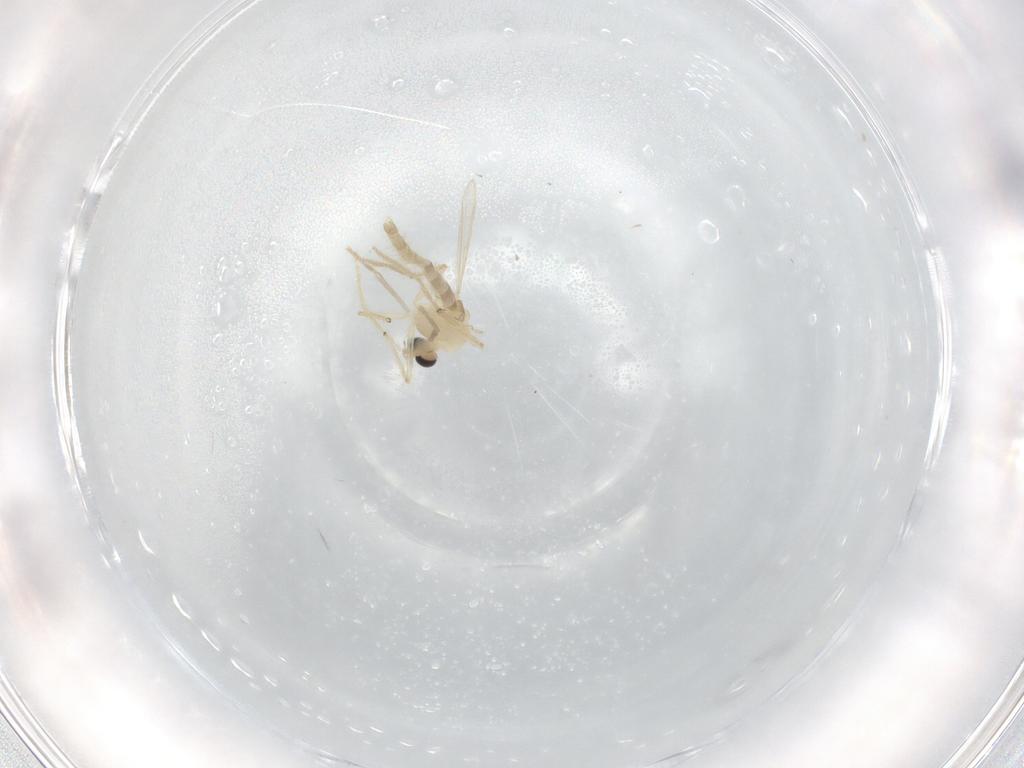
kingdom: Animalia
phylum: Arthropoda
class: Insecta
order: Diptera
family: Chironomidae
